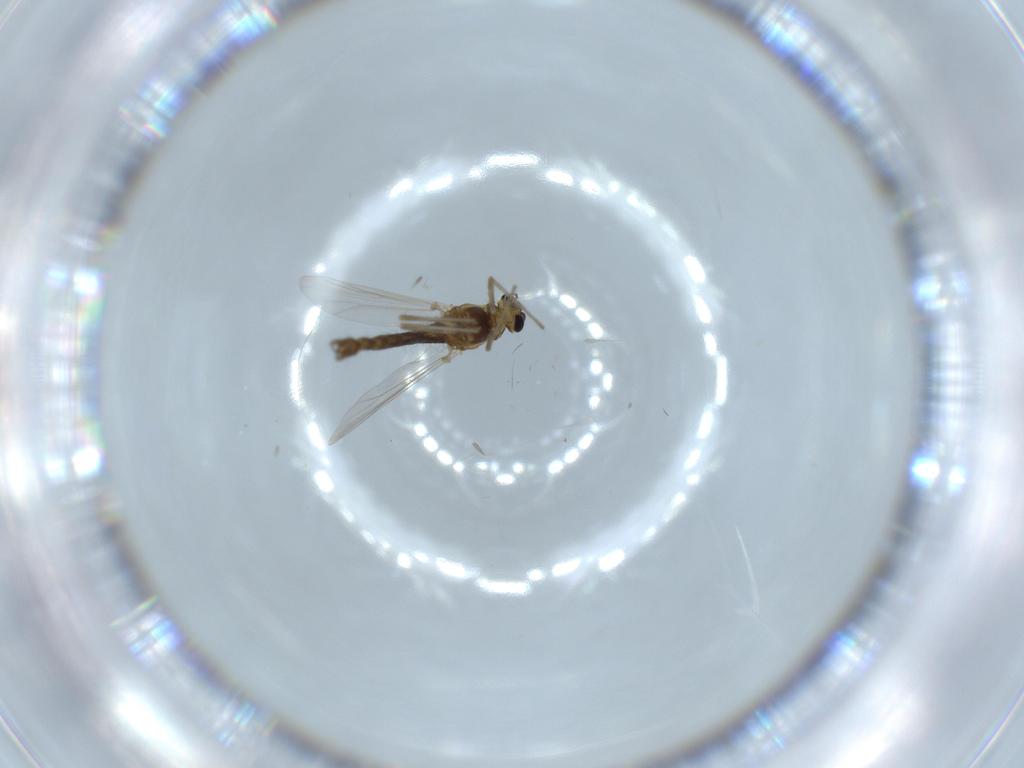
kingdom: Animalia
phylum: Arthropoda
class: Insecta
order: Diptera
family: Chironomidae
